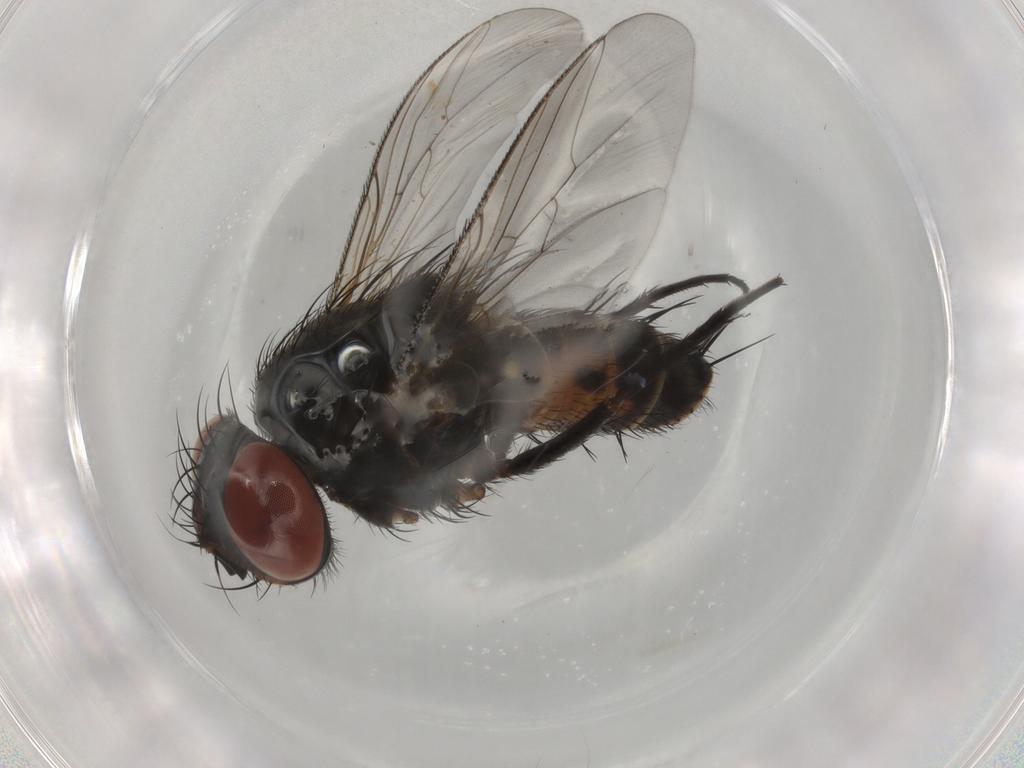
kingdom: Animalia
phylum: Arthropoda
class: Insecta
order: Diptera
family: Sarcophagidae
